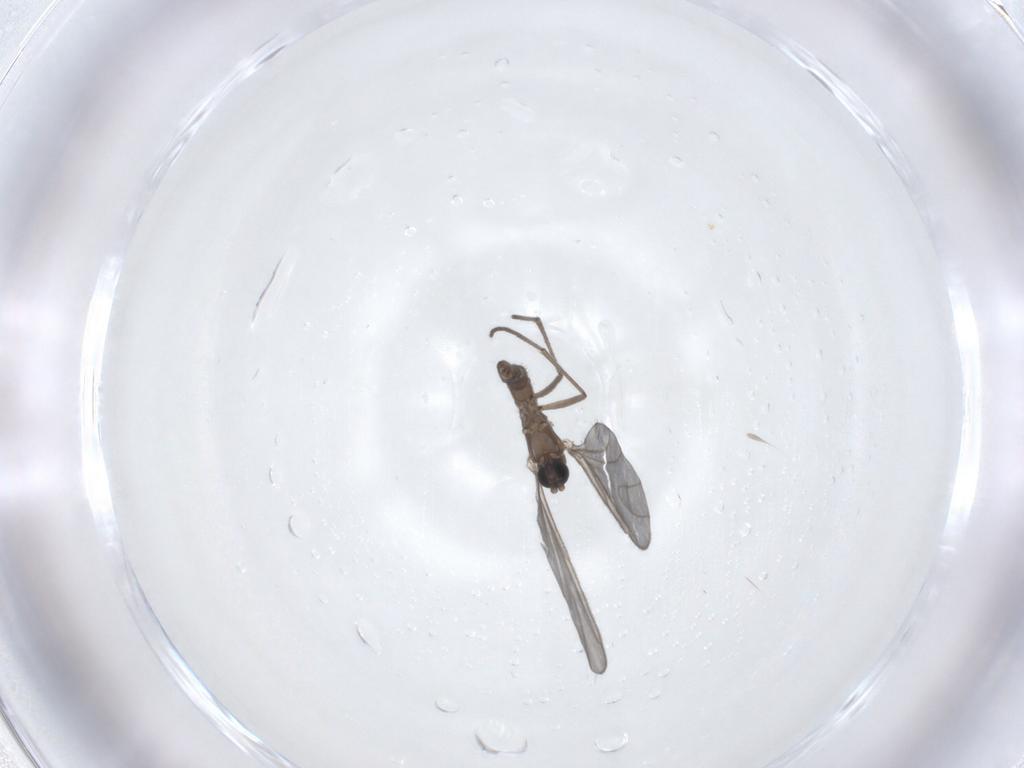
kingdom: Animalia
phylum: Arthropoda
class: Insecta
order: Diptera
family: Sciaridae
